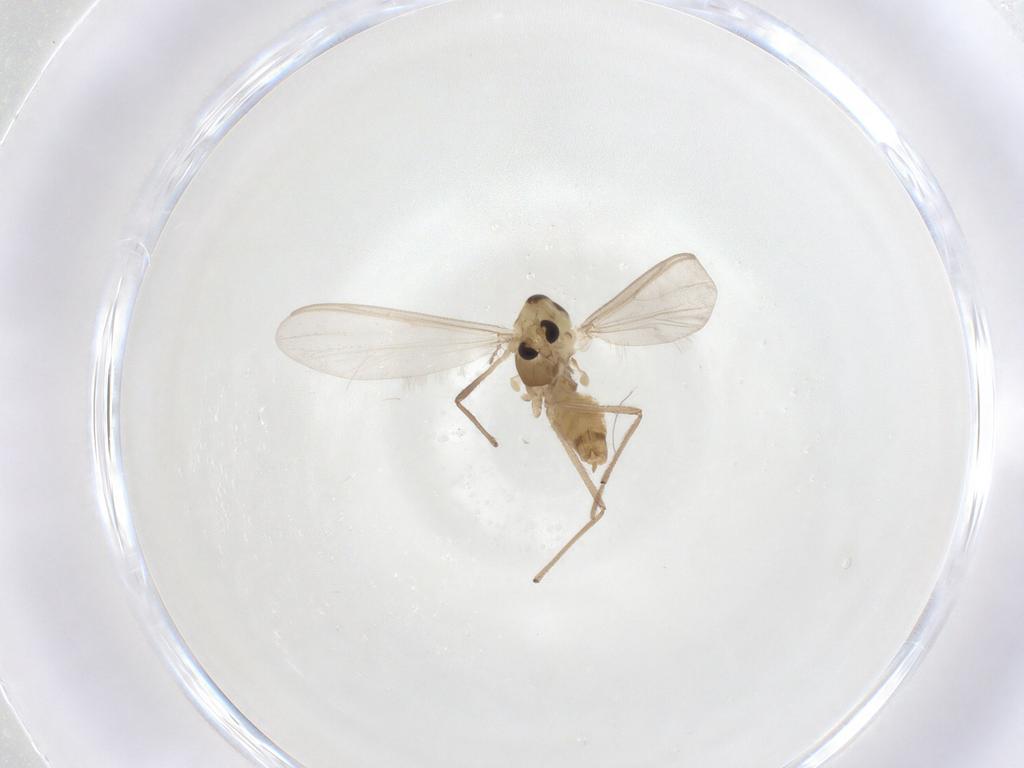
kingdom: Animalia
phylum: Arthropoda
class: Insecta
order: Diptera
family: Chironomidae
